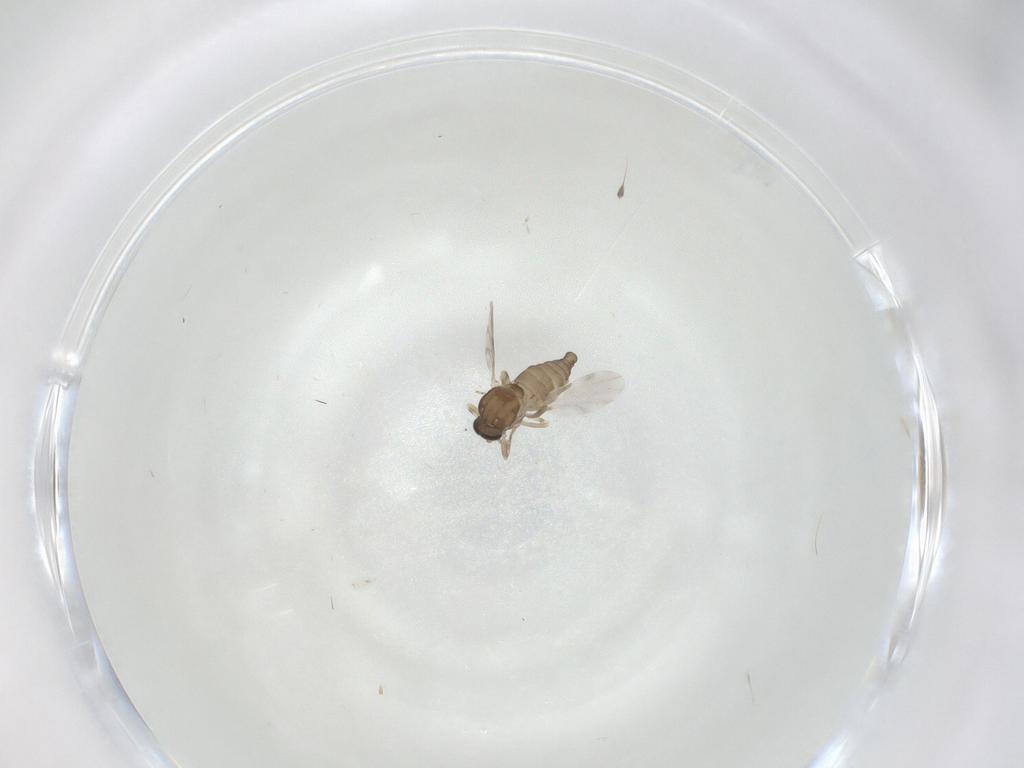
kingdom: Animalia
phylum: Arthropoda
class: Insecta
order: Diptera
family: Ceratopogonidae
